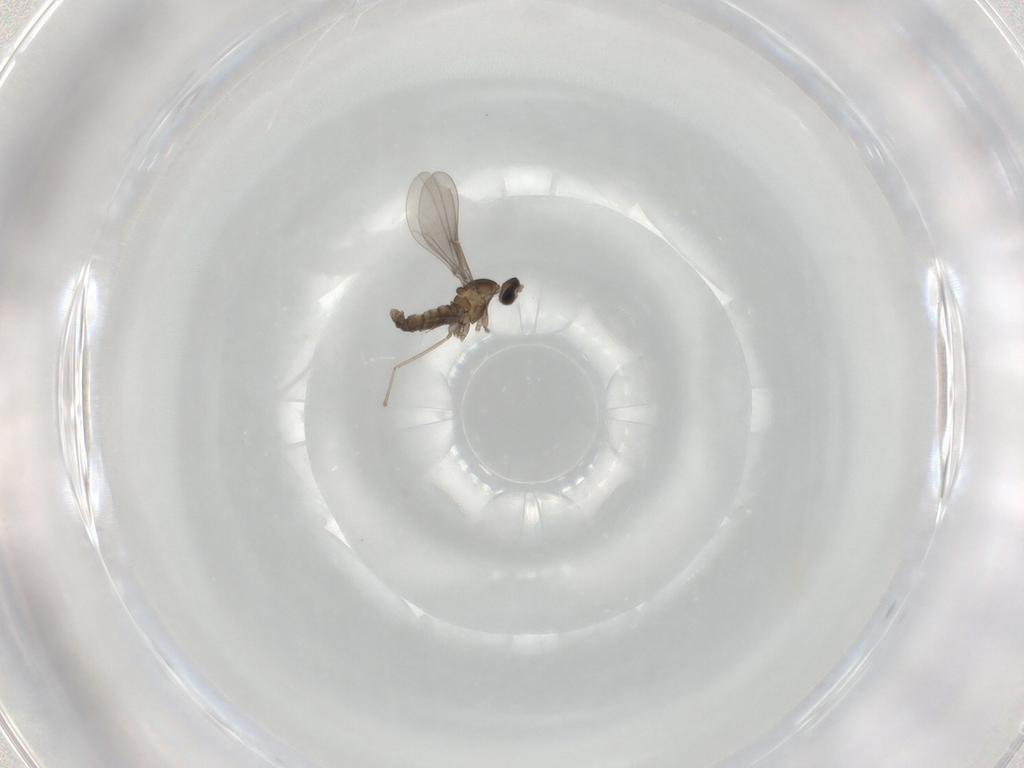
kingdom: Animalia
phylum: Arthropoda
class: Insecta
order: Diptera
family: Cecidomyiidae
